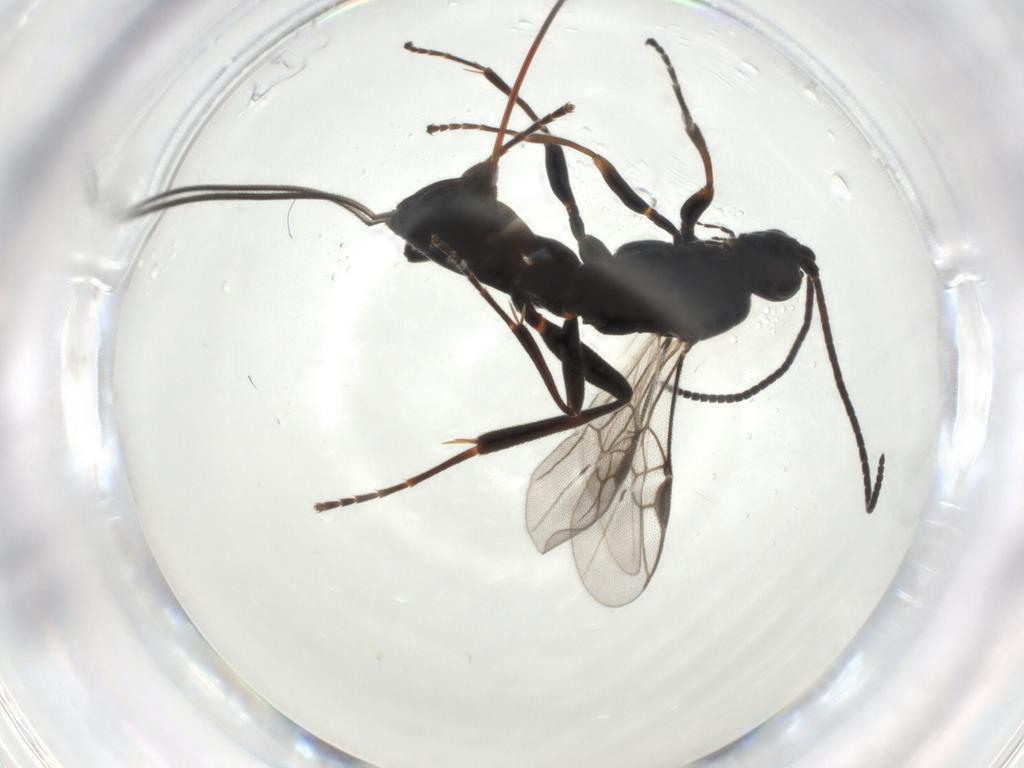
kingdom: Animalia
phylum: Arthropoda
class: Insecta
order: Hymenoptera
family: Braconidae
